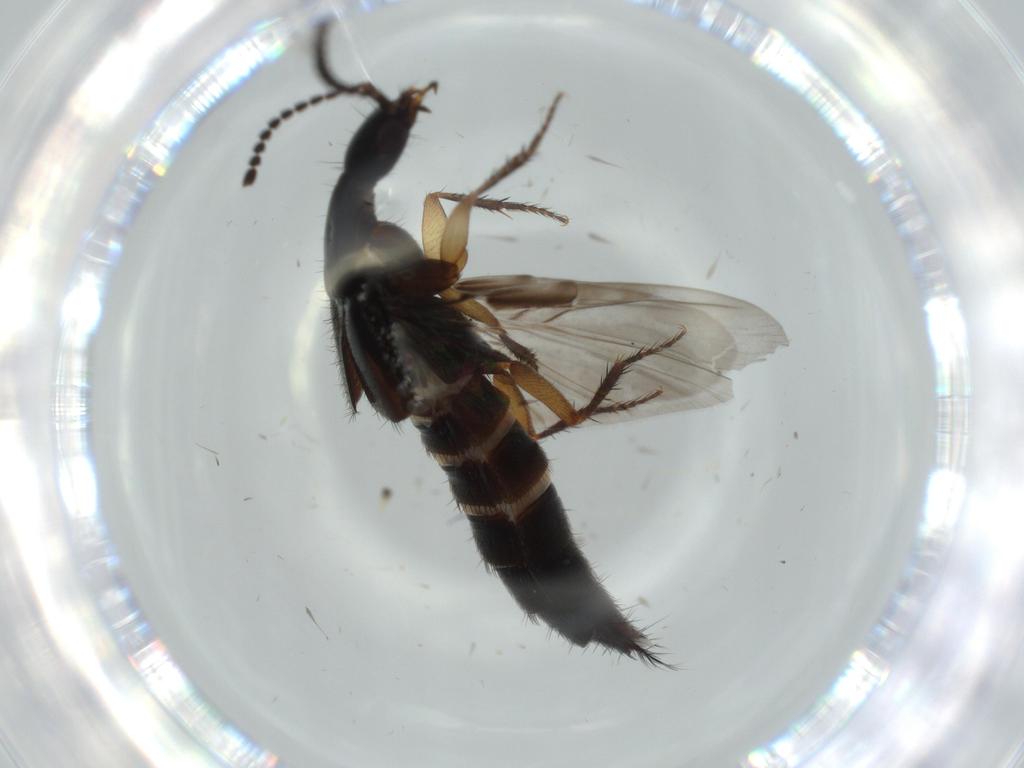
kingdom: Animalia
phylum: Arthropoda
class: Insecta
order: Coleoptera
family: Staphylinidae
